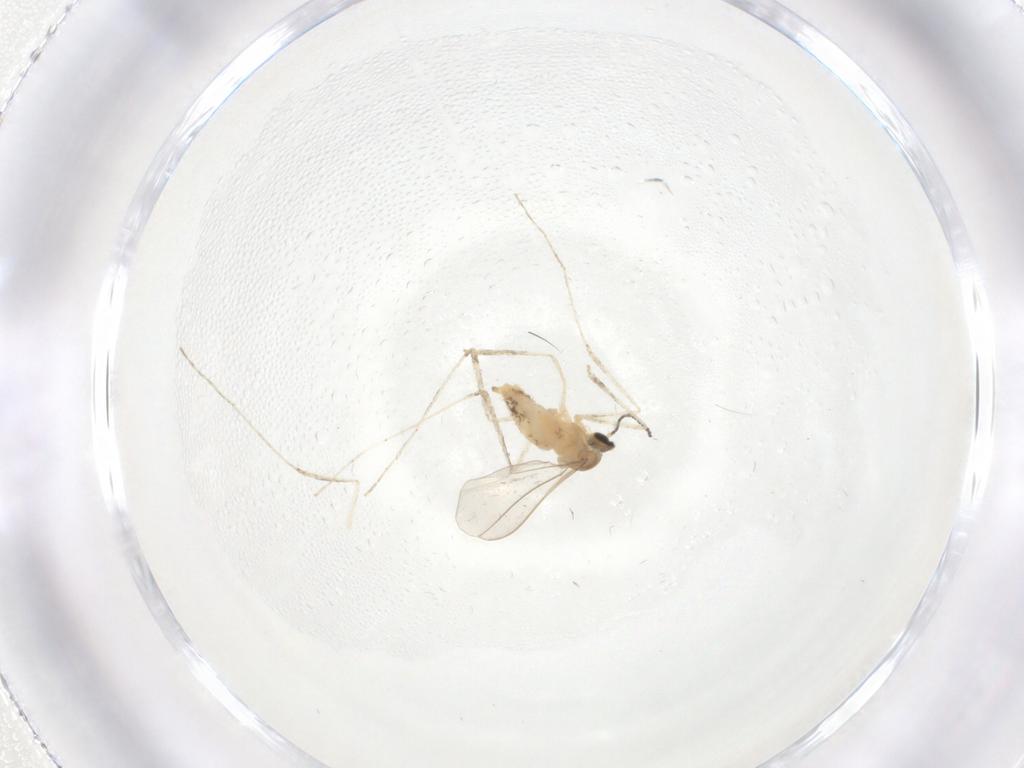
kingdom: Animalia
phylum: Arthropoda
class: Insecta
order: Diptera
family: Cecidomyiidae
